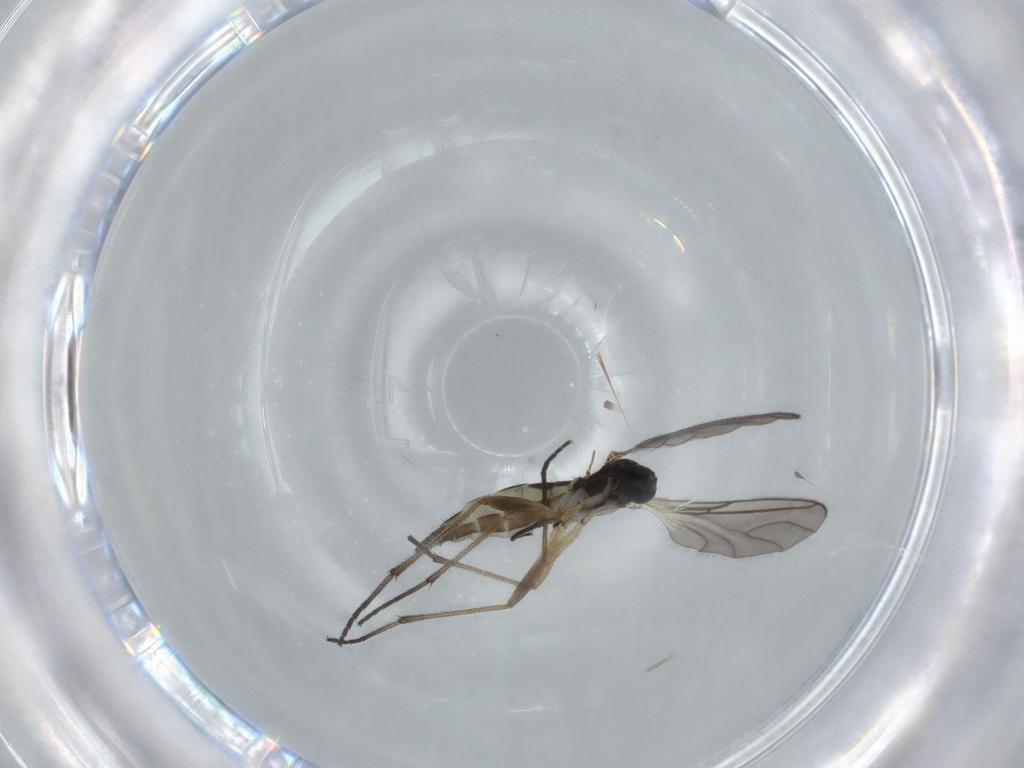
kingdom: Animalia
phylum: Arthropoda
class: Insecta
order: Diptera
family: Sciaridae
